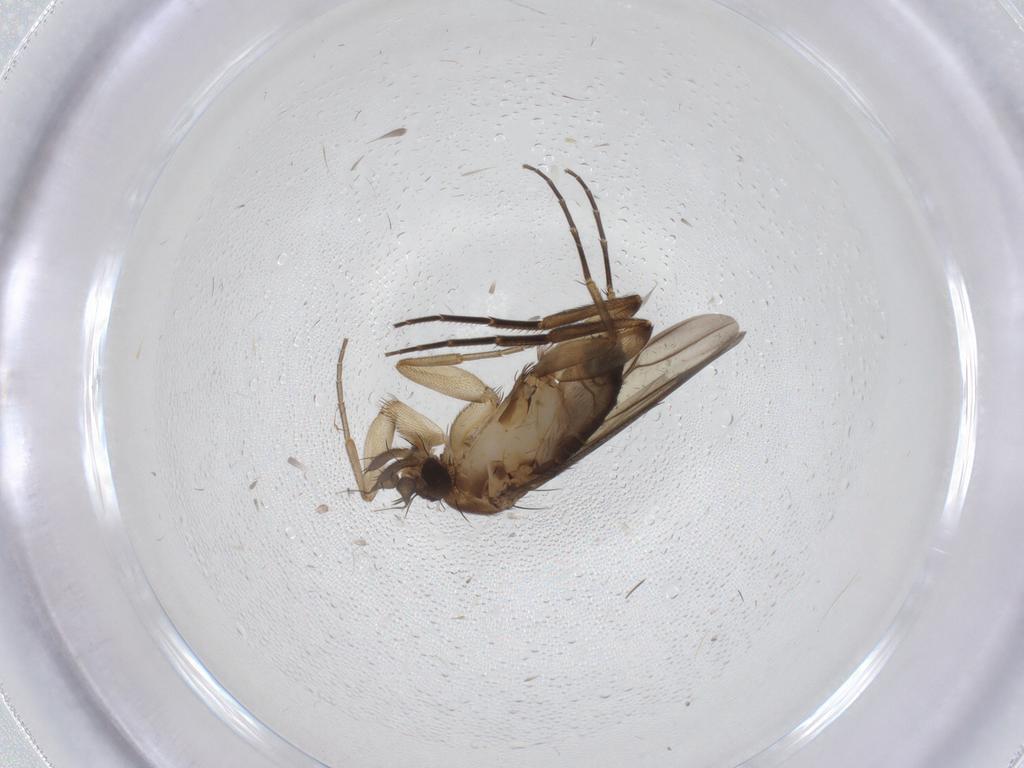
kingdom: Animalia
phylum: Arthropoda
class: Insecta
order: Diptera
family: Phoridae
